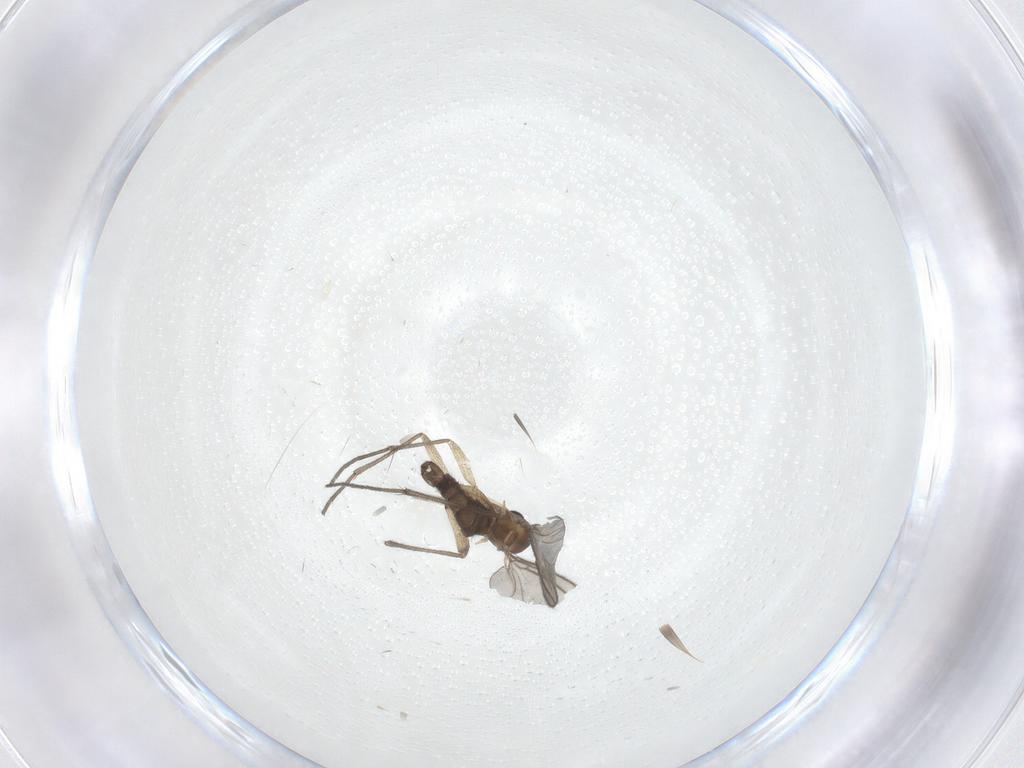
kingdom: Animalia
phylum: Arthropoda
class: Insecta
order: Diptera
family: Sciaridae
